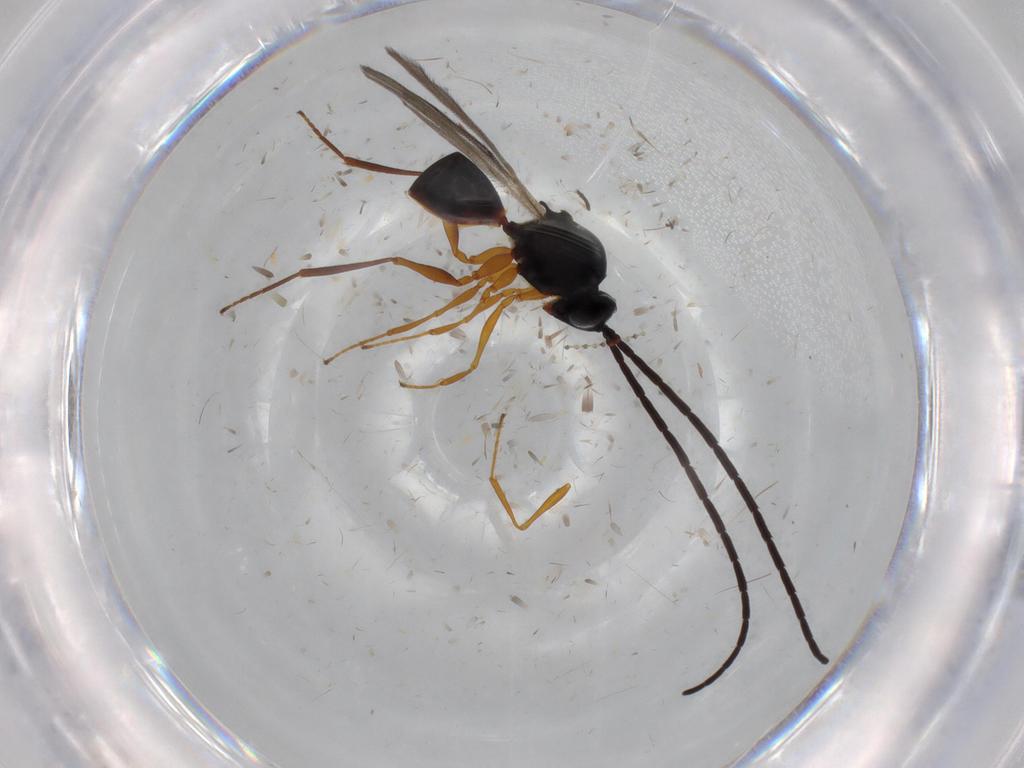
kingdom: Animalia
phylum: Arthropoda
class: Insecta
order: Hymenoptera
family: Figitidae
